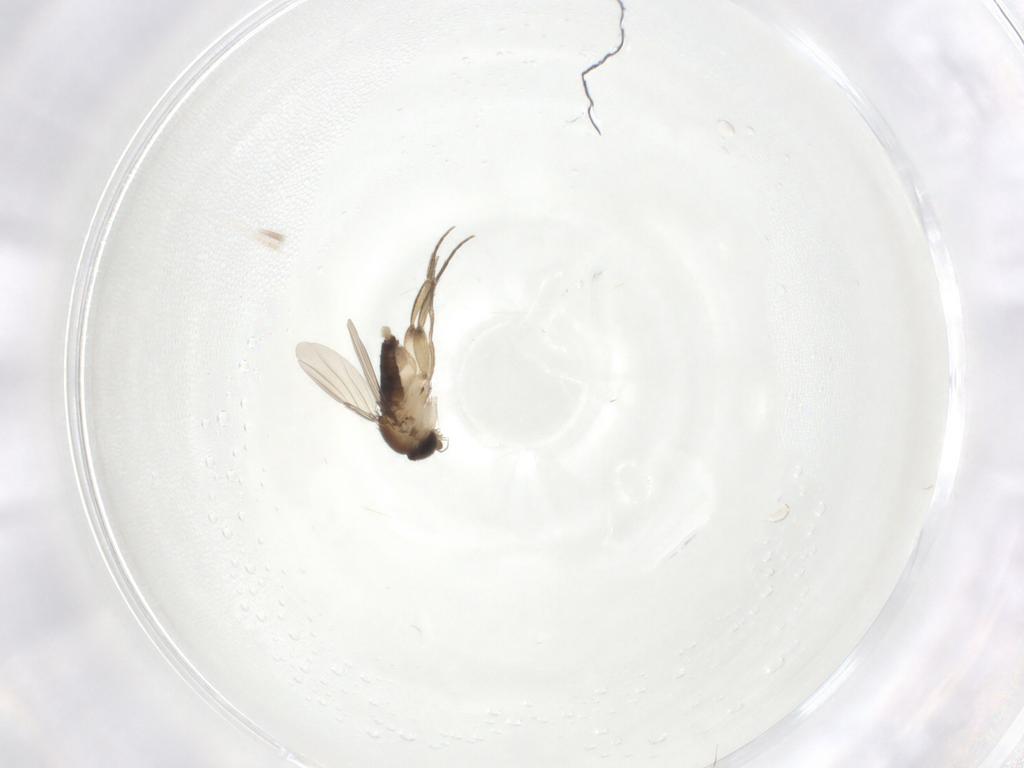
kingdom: Animalia
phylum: Arthropoda
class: Insecta
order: Diptera
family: Phoridae
